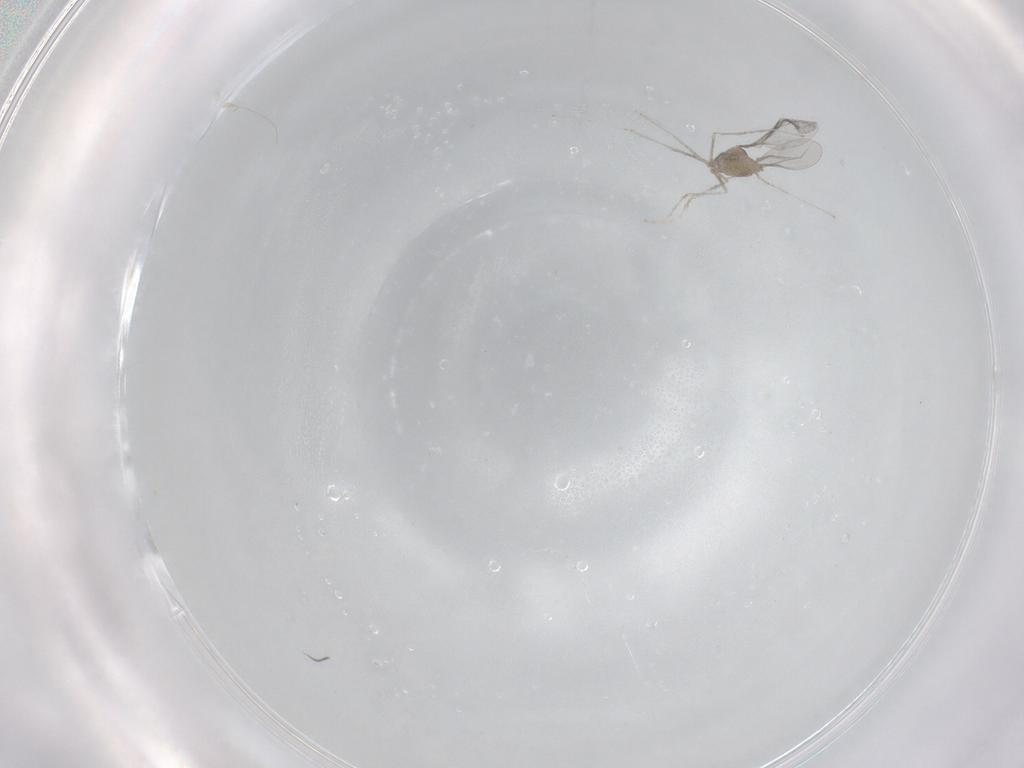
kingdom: Animalia
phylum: Arthropoda
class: Insecta
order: Diptera
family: Cecidomyiidae
